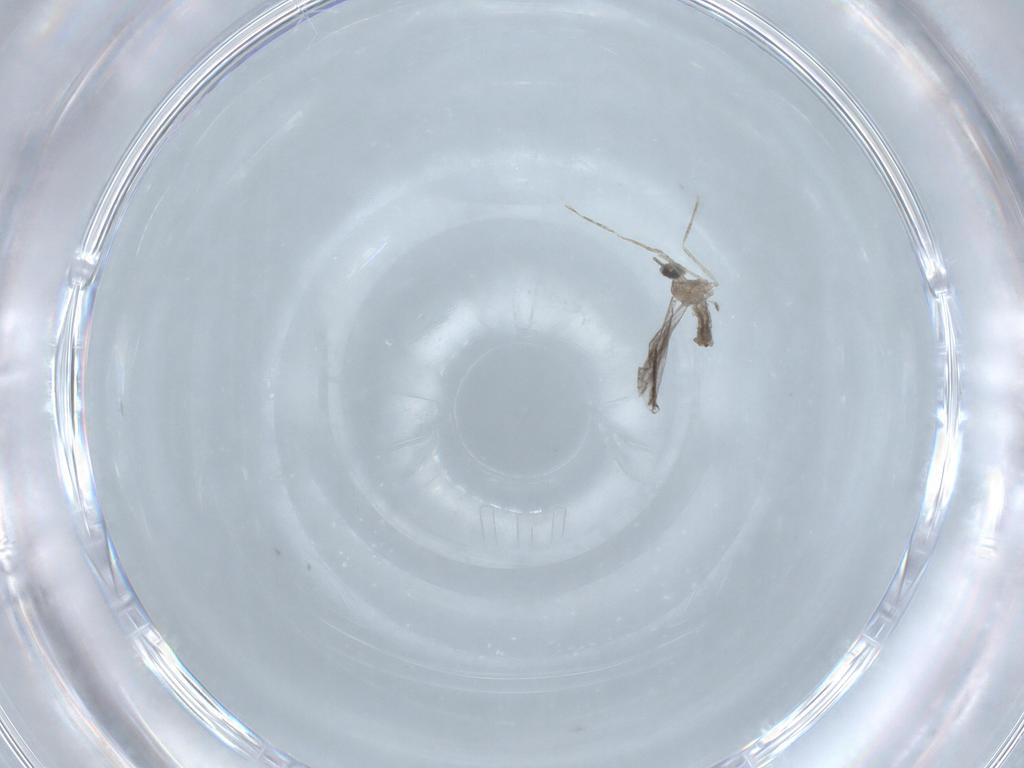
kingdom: Animalia
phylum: Arthropoda
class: Insecta
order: Diptera
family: Cecidomyiidae
